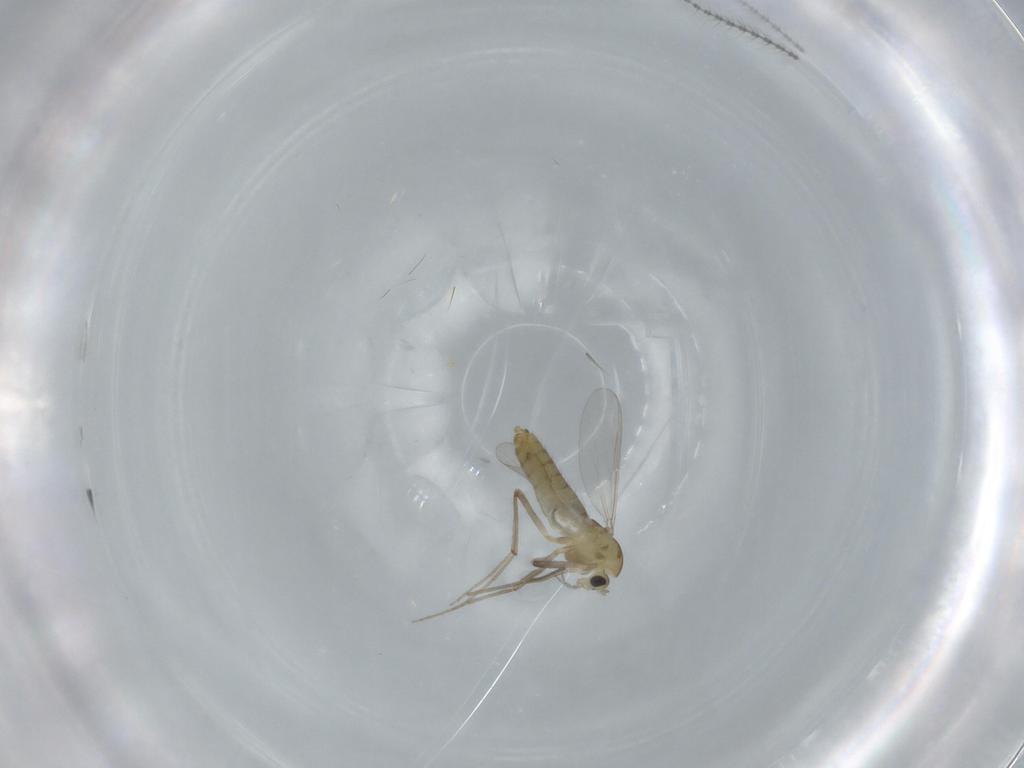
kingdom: Animalia
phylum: Arthropoda
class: Insecta
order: Diptera
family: Chironomidae
